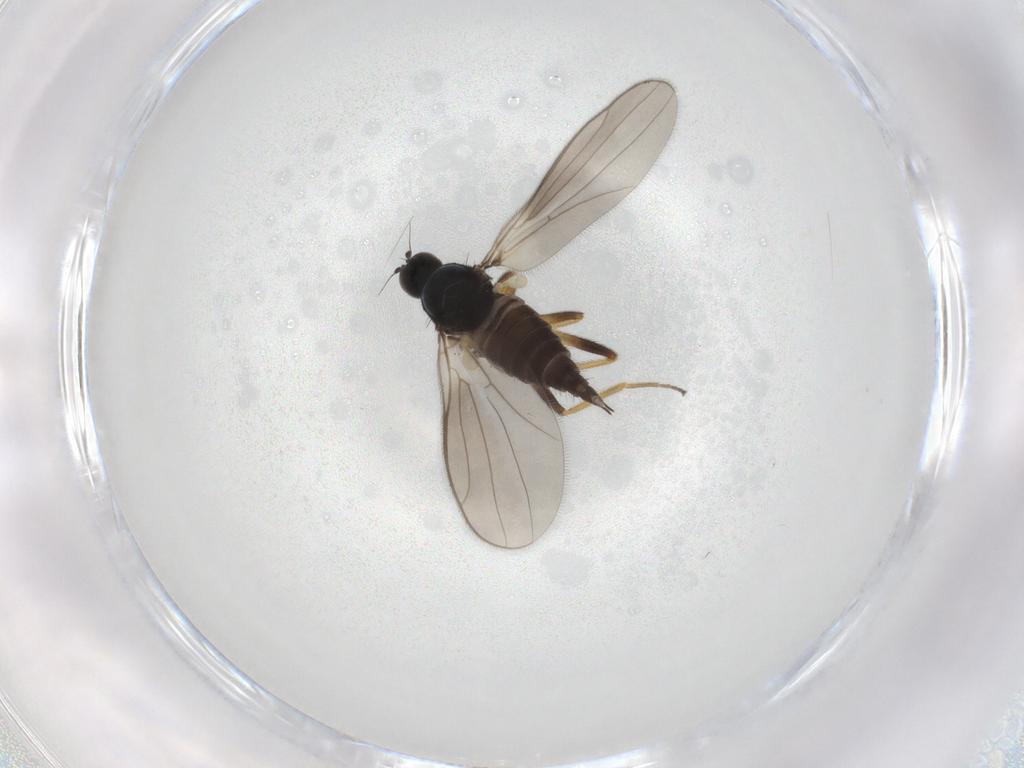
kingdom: Animalia
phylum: Arthropoda
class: Insecta
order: Diptera
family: Hybotidae
